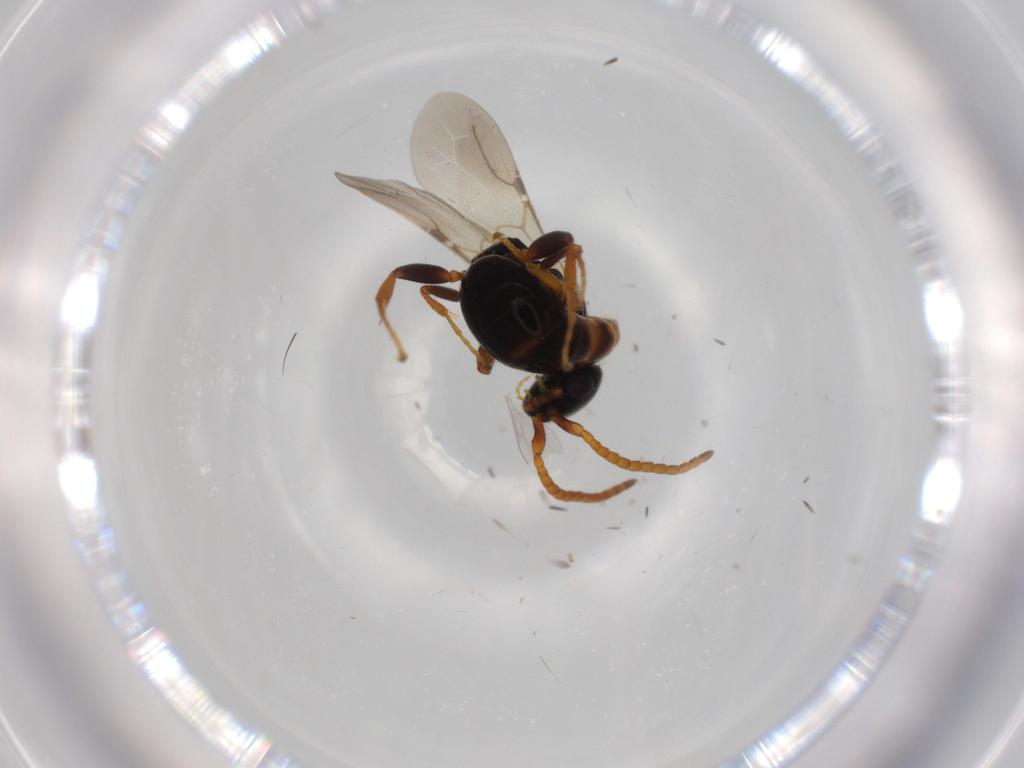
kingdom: Animalia
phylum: Arthropoda
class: Insecta
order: Hymenoptera
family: Bethylidae
